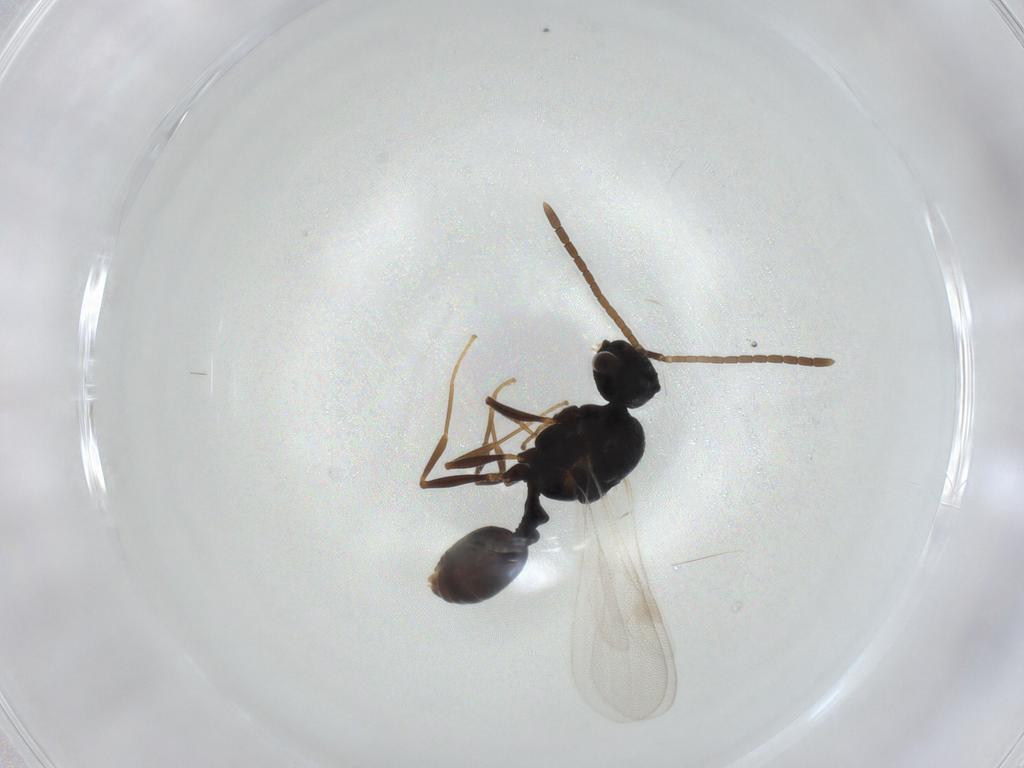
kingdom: Animalia
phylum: Arthropoda
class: Insecta
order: Hymenoptera
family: Formicidae
